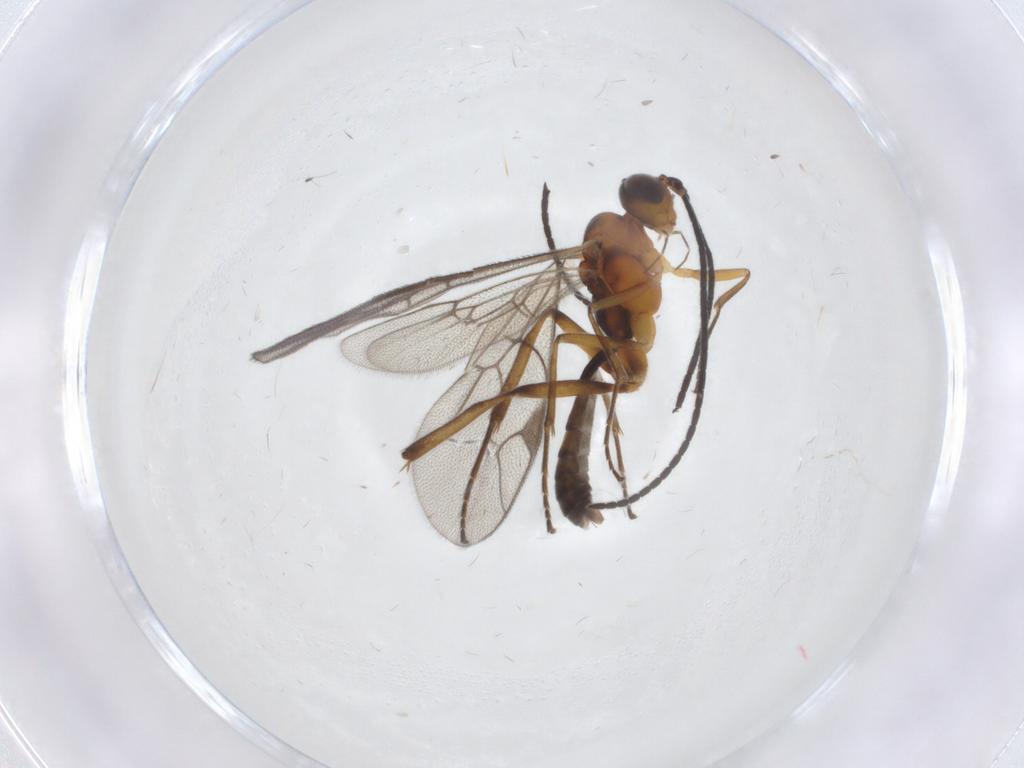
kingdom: Animalia
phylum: Arthropoda
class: Insecta
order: Hymenoptera
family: Ichneumonidae
